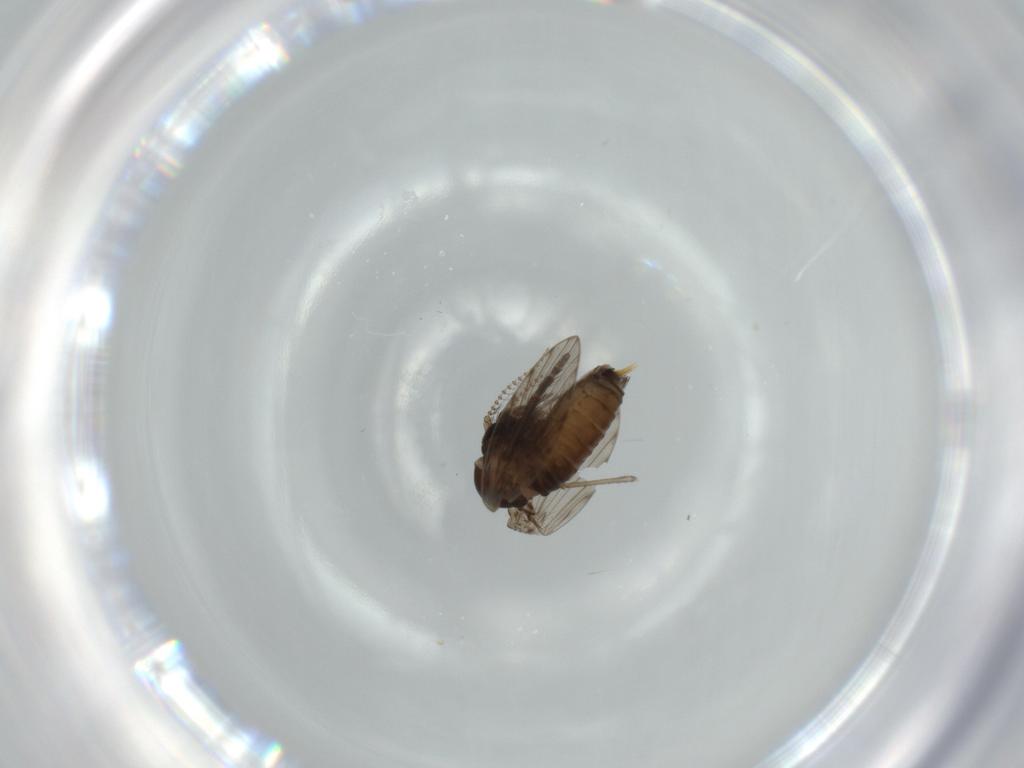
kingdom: Animalia
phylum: Arthropoda
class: Insecta
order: Diptera
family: Psychodidae
